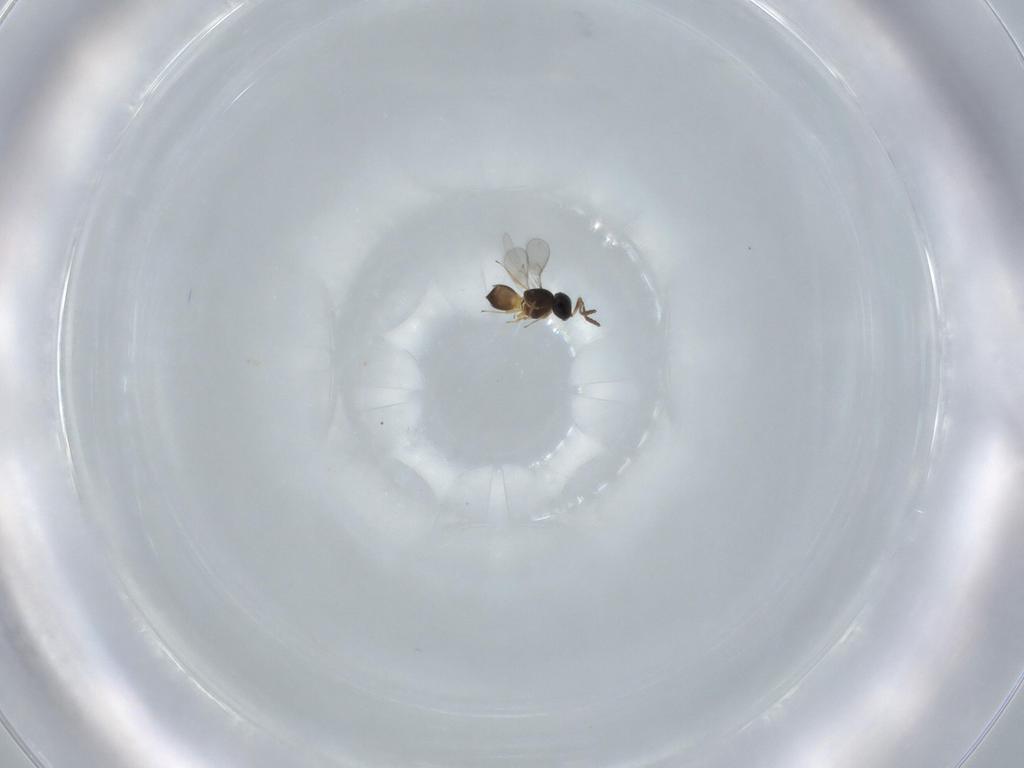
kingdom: Animalia
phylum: Arthropoda
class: Insecta
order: Hymenoptera
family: Scelionidae
